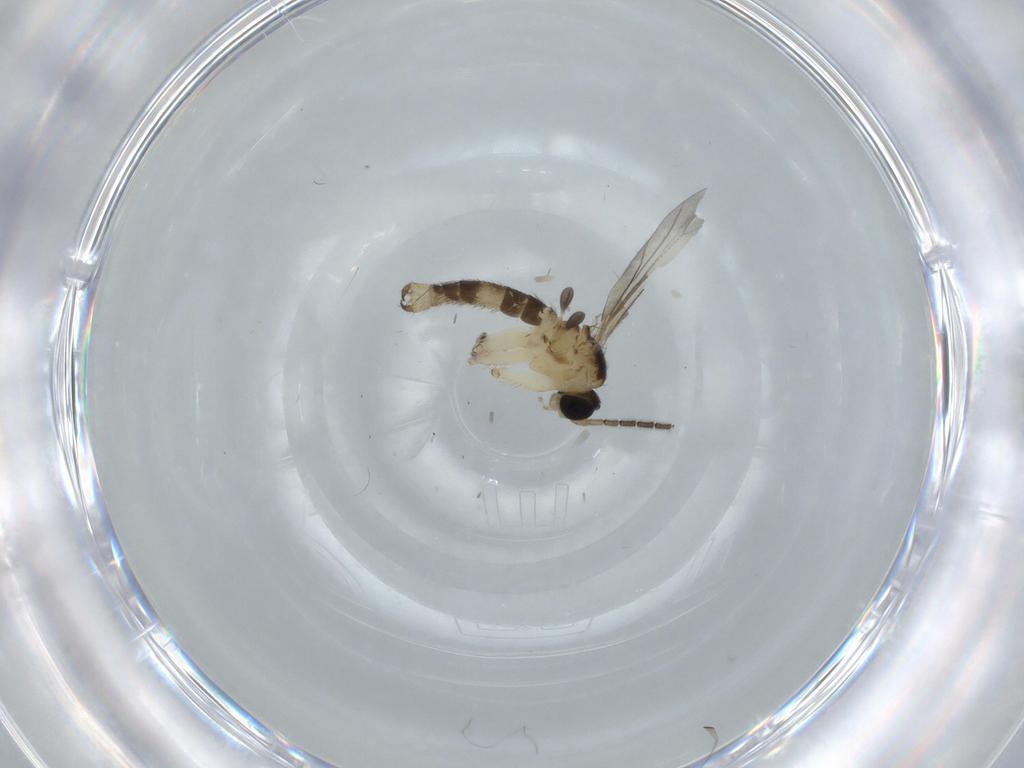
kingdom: Animalia
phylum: Arthropoda
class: Insecta
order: Diptera
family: Sciaridae
